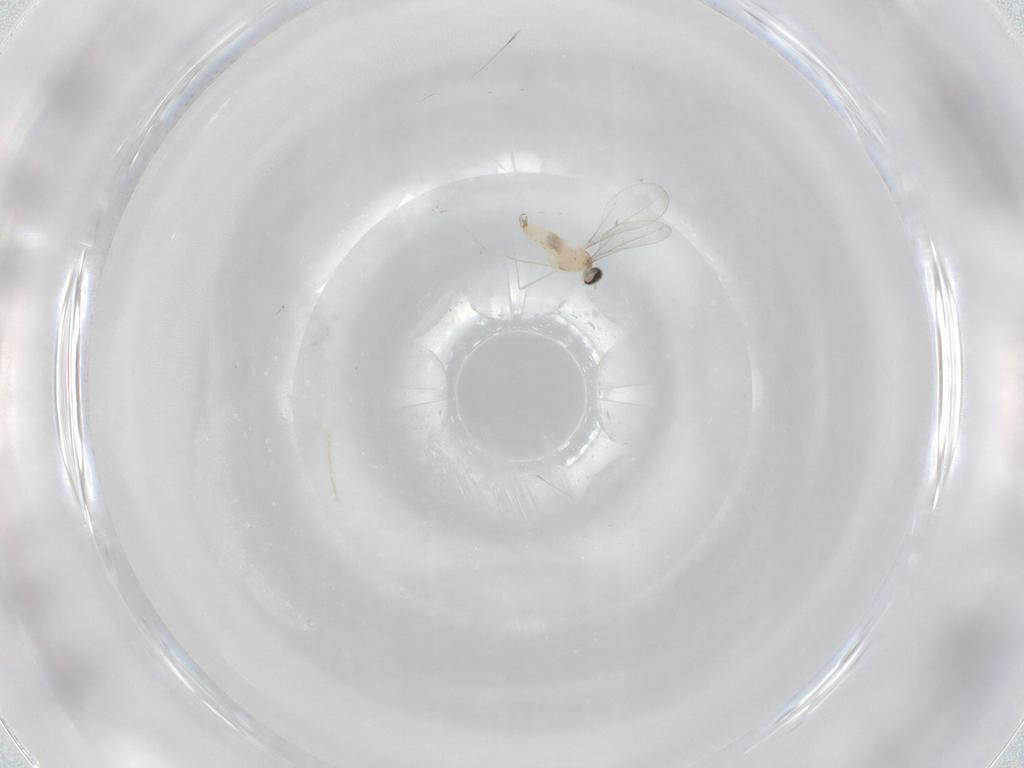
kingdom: Animalia
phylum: Arthropoda
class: Insecta
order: Diptera
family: Cecidomyiidae
